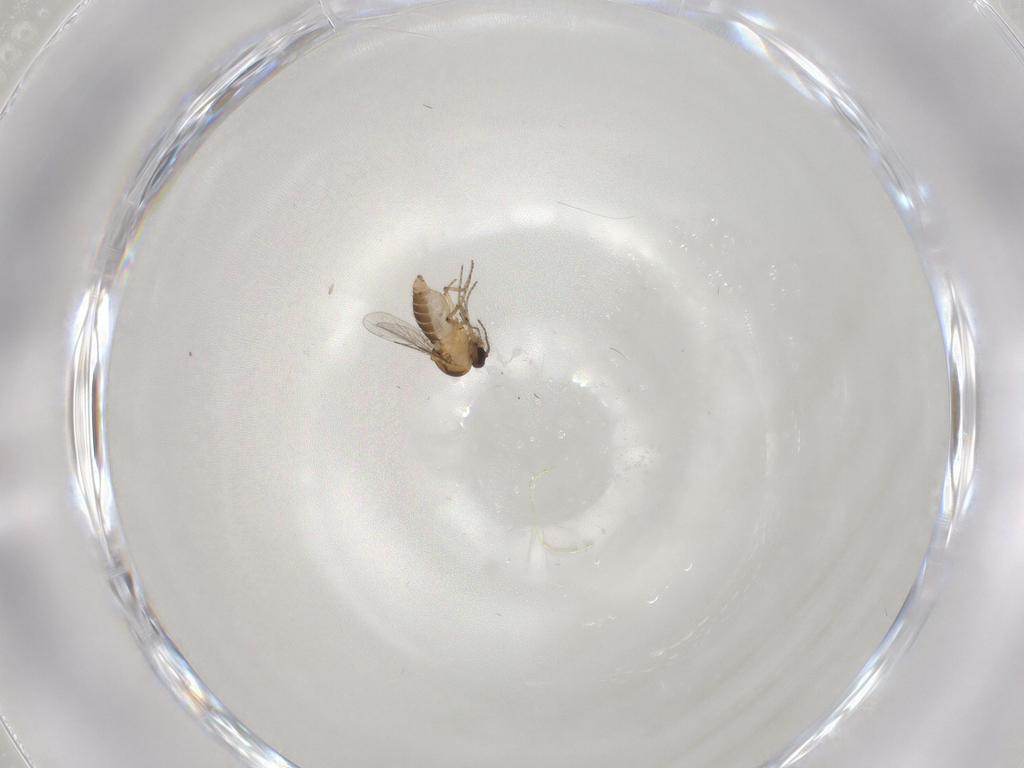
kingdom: Animalia
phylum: Arthropoda
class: Insecta
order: Diptera
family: Ceratopogonidae
